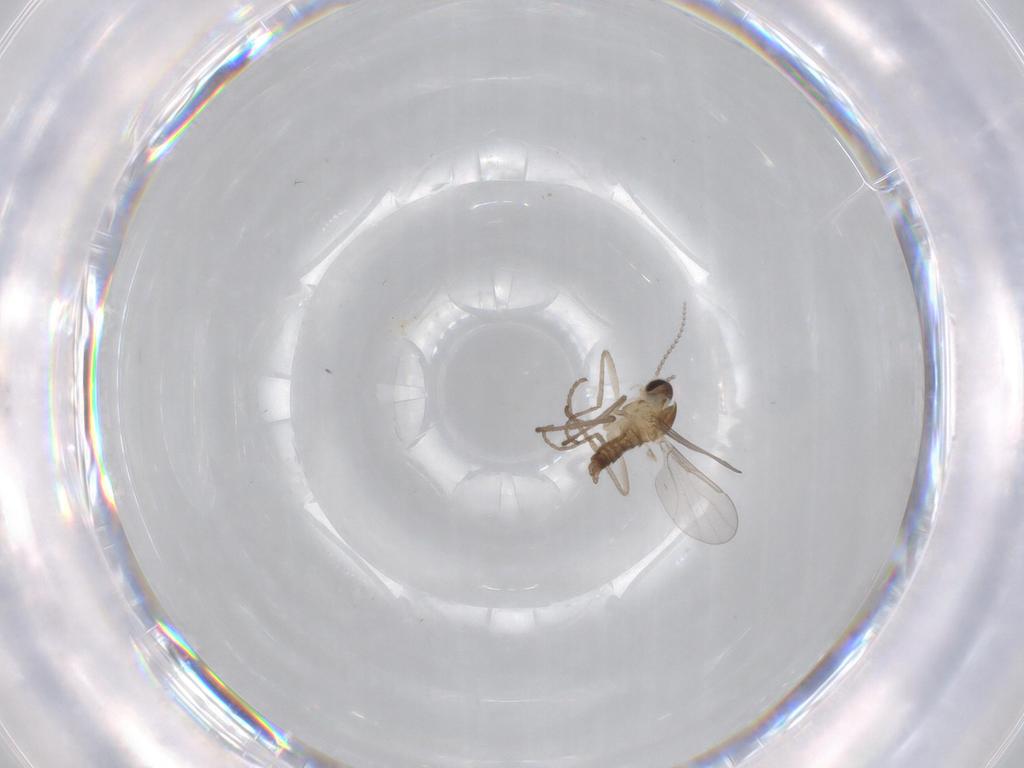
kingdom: Animalia
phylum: Arthropoda
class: Insecta
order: Diptera
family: Cecidomyiidae
